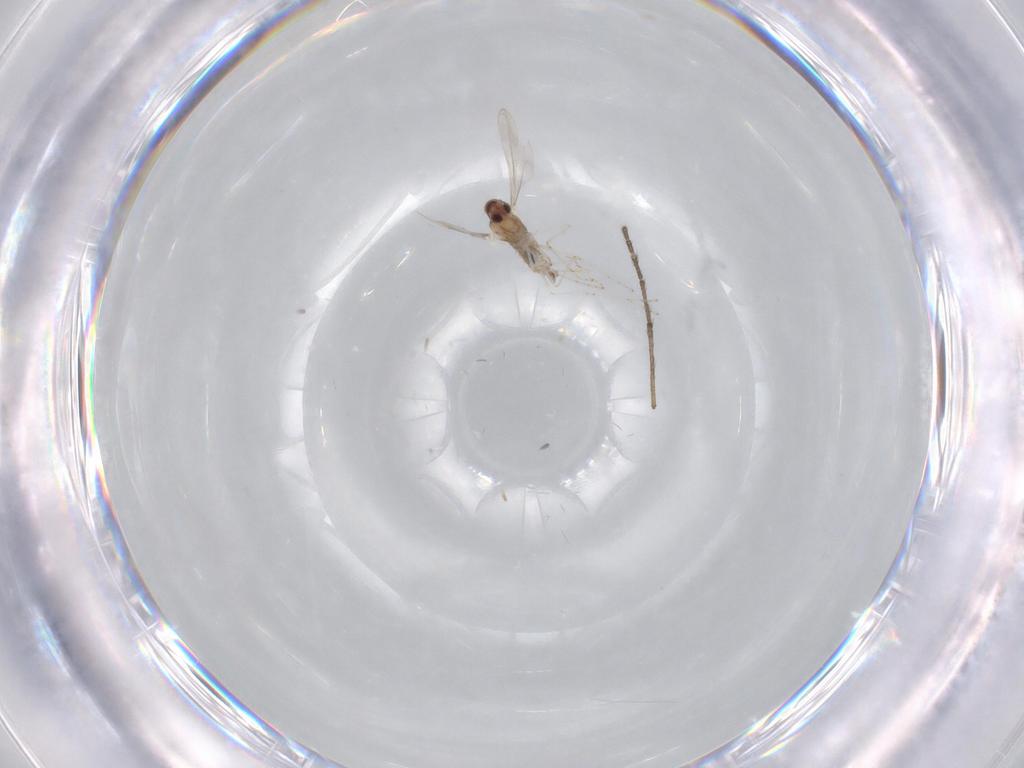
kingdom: Animalia
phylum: Arthropoda
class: Insecta
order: Diptera
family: Cecidomyiidae
